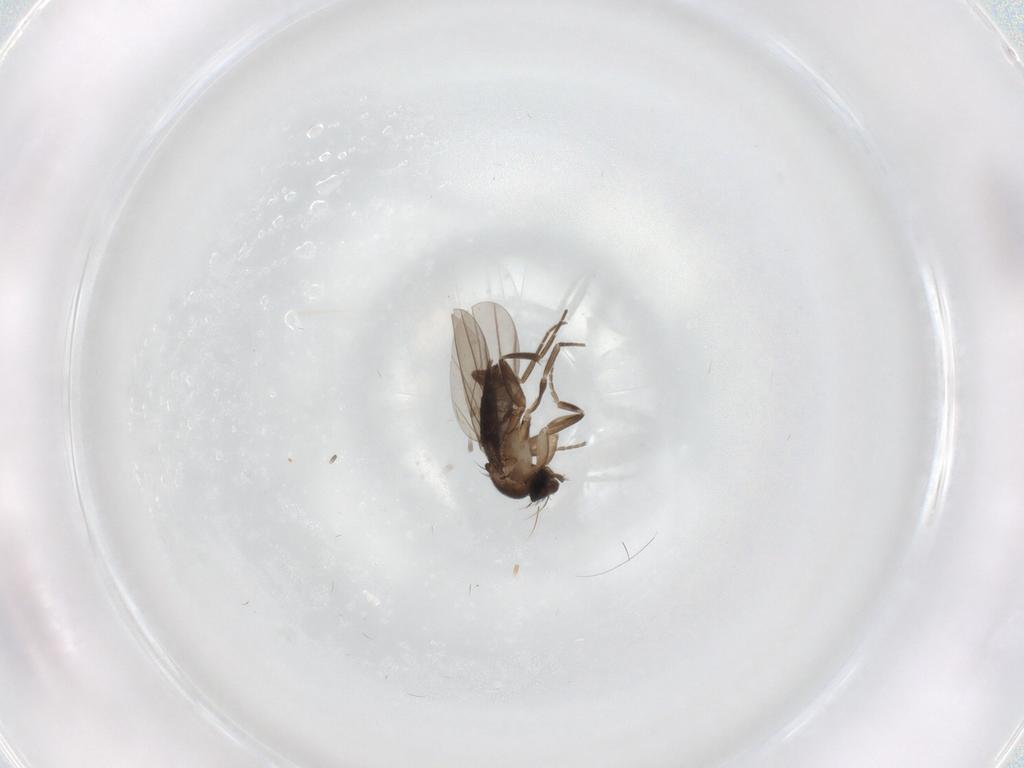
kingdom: Animalia
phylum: Arthropoda
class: Insecta
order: Diptera
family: Phoridae
